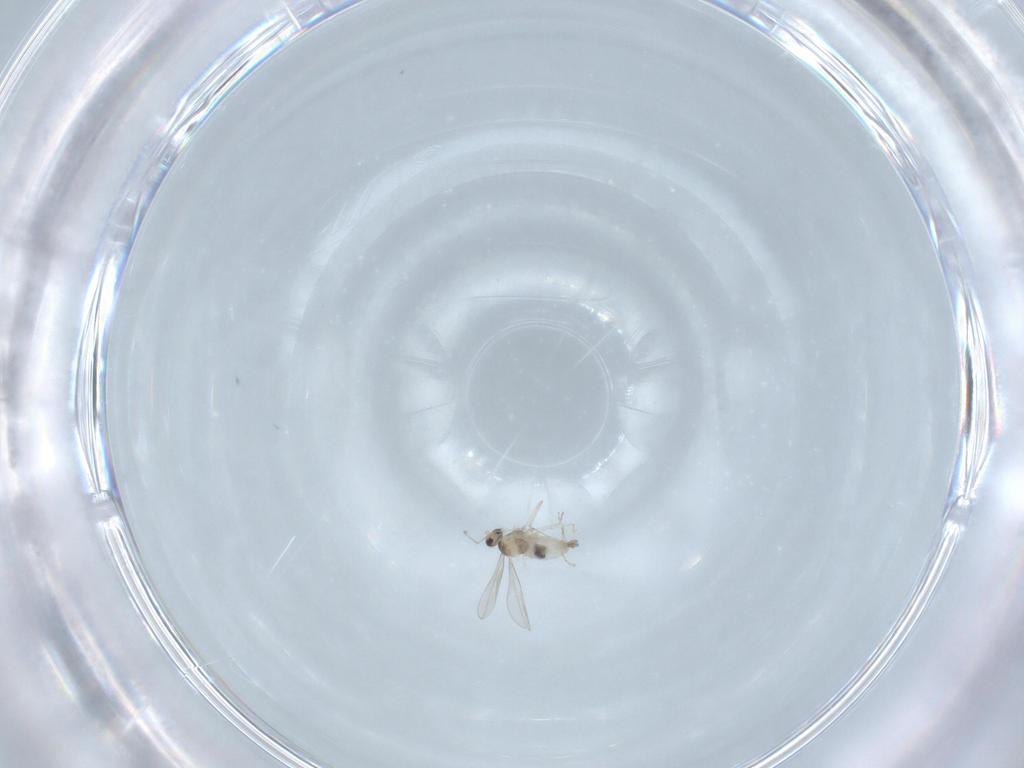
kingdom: Animalia
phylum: Arthropoda
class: Insecta
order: Diptera
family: Cecidomyiidae
